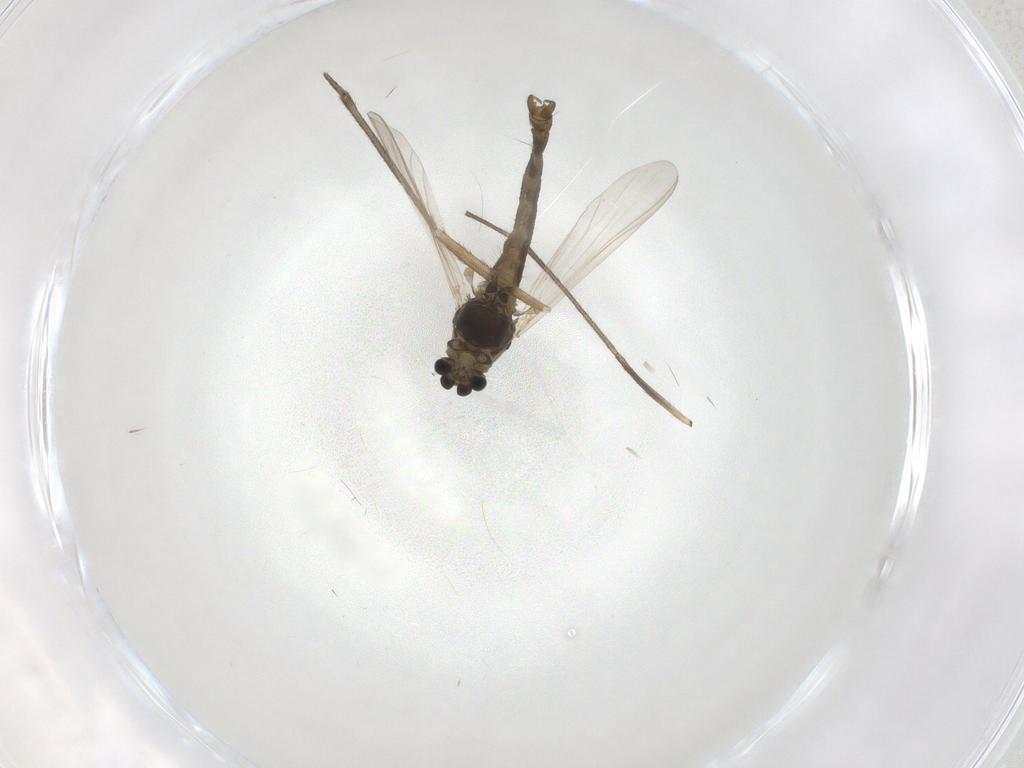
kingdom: Animalia
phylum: Arthropoda
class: Insecta
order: Diptera
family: Chironomidae
